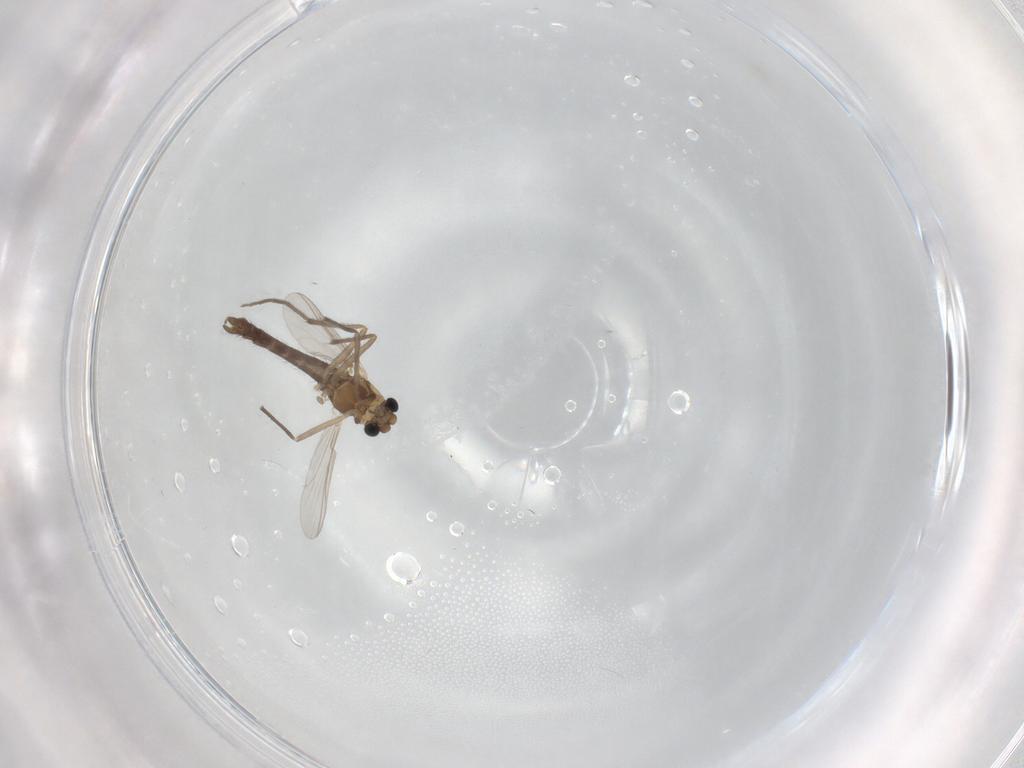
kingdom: Animalia
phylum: Arthropoda
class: Insecta
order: Diptera
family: Chironomidae
